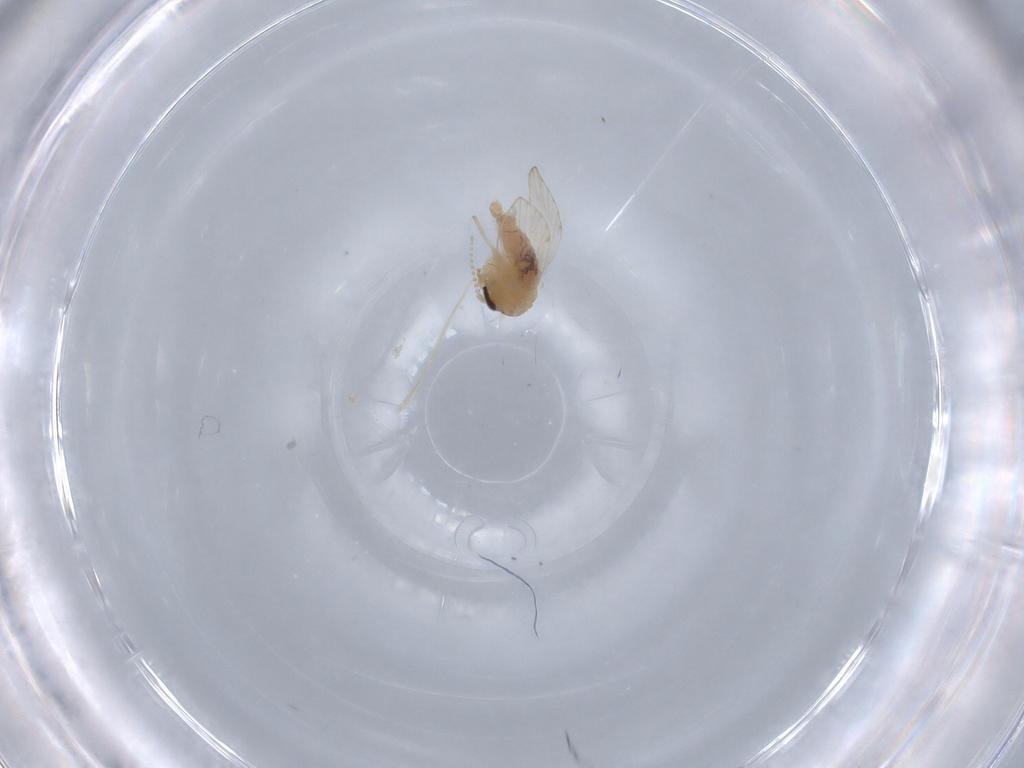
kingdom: Animalia
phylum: Arthropoda
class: Insecta
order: Diptera
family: Psychodidae
